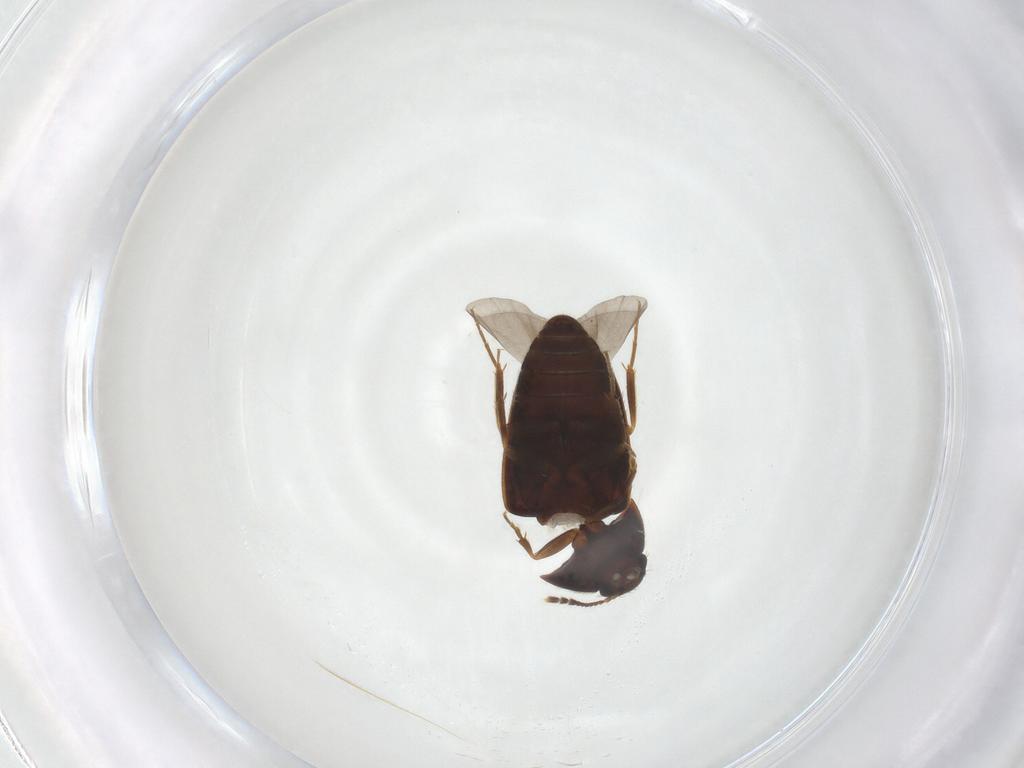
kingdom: Animalia
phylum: Arthropoda
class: Insecta
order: Coleoptera
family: Mycetophagidae
